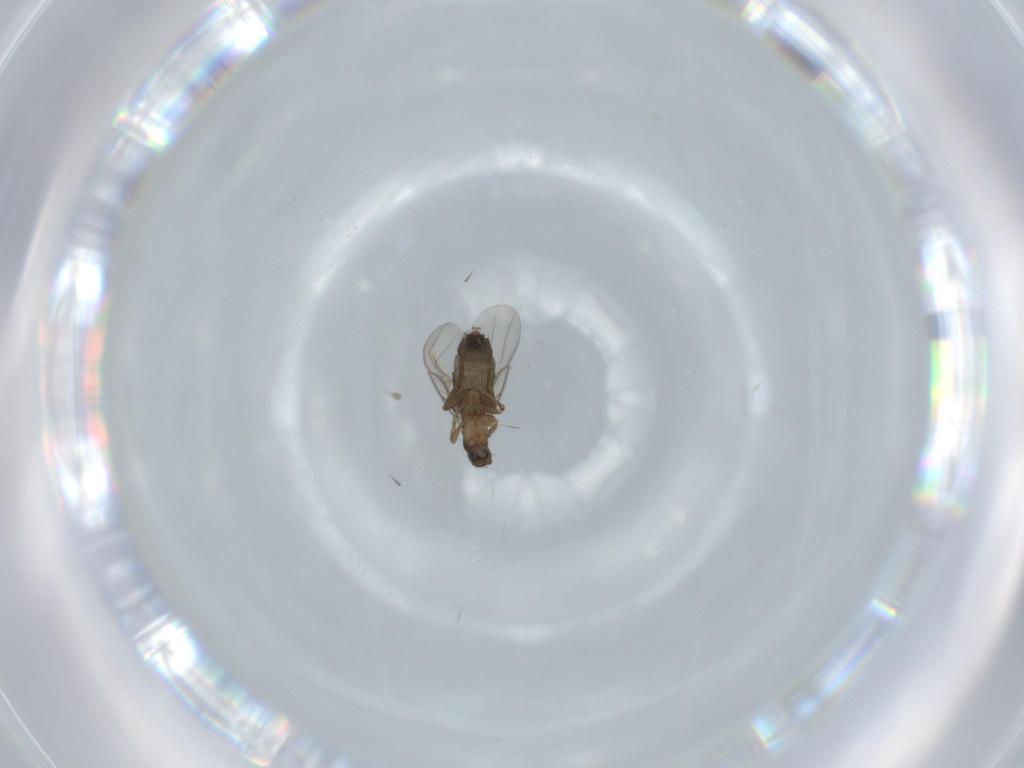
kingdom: Animalia
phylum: Arthropoda
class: Insecta
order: Diptera
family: Phoridae
